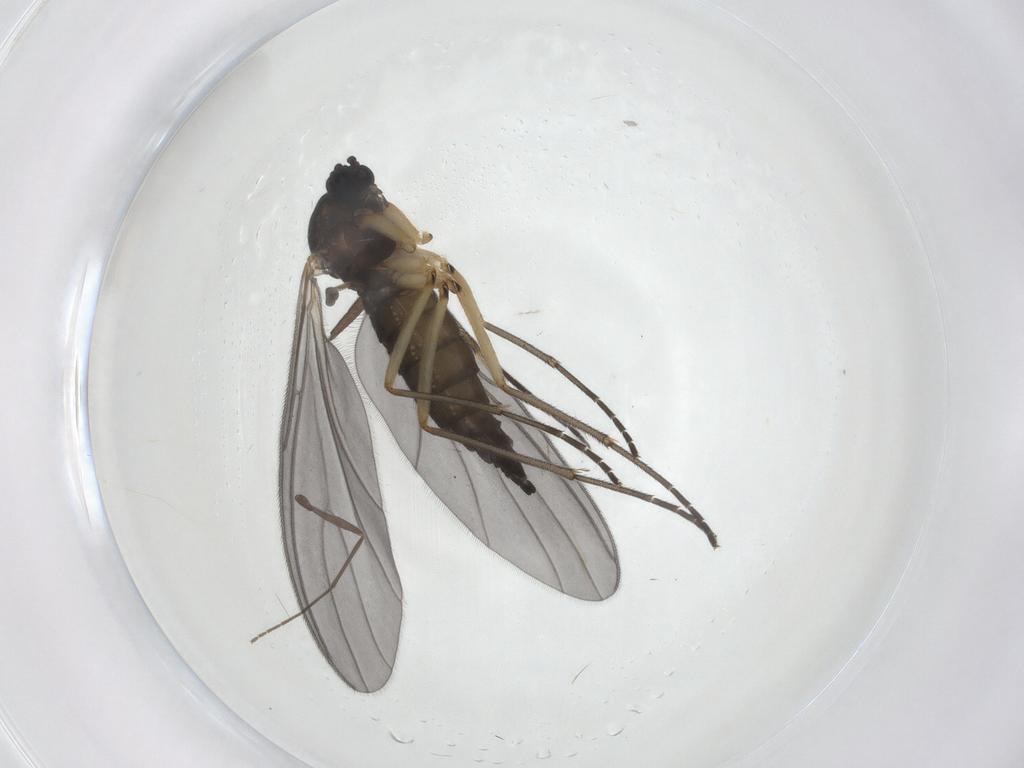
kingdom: Animalia
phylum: Arthropoda
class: Insecta
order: Diptera
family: Sciaridae
